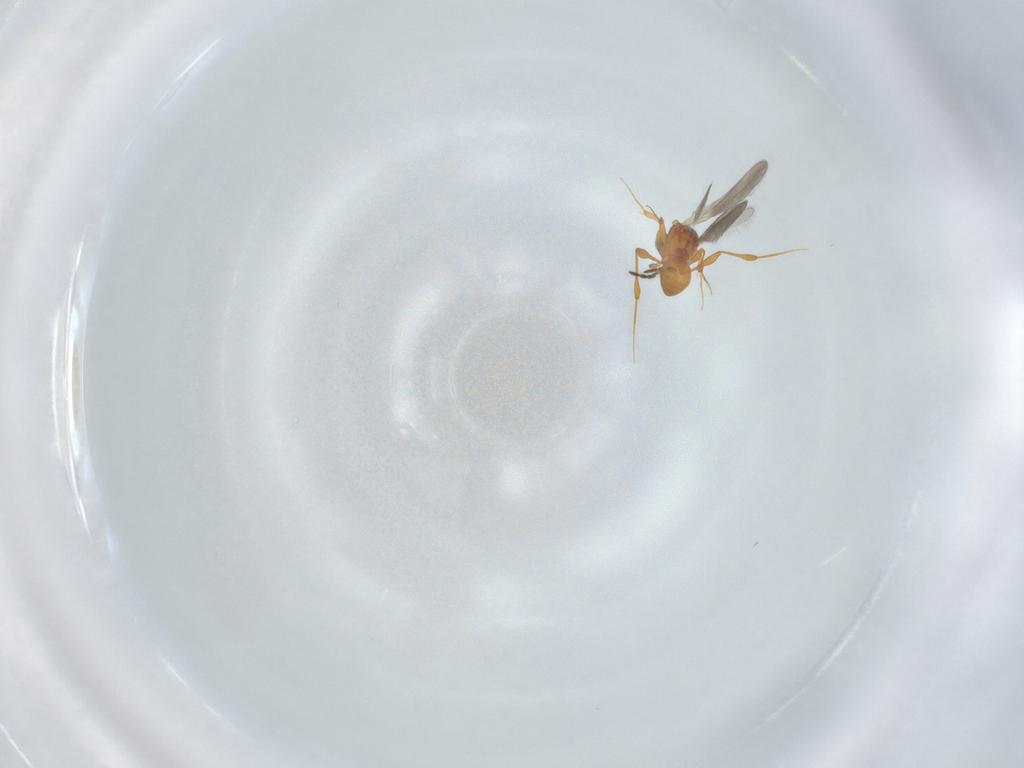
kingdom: Animalia
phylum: Arthropoda
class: Insecta
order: Hymenoptera
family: Platygastridae
